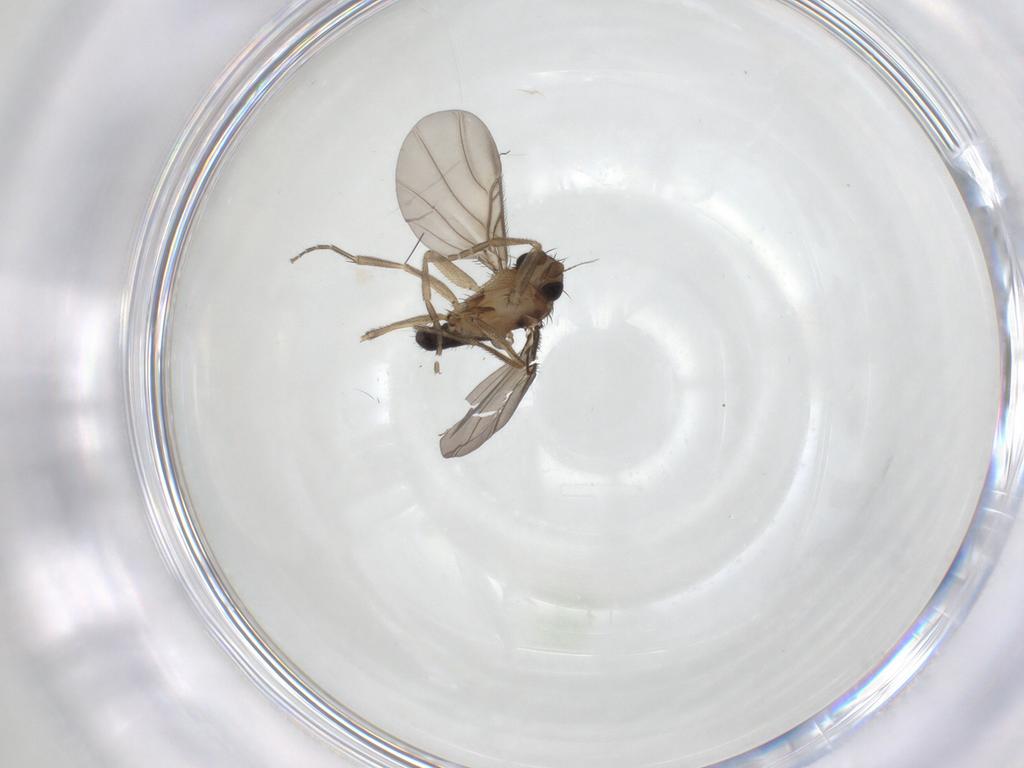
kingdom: Animalia
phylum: Arthropoda
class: Insecta
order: Diptera
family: Phoridae
